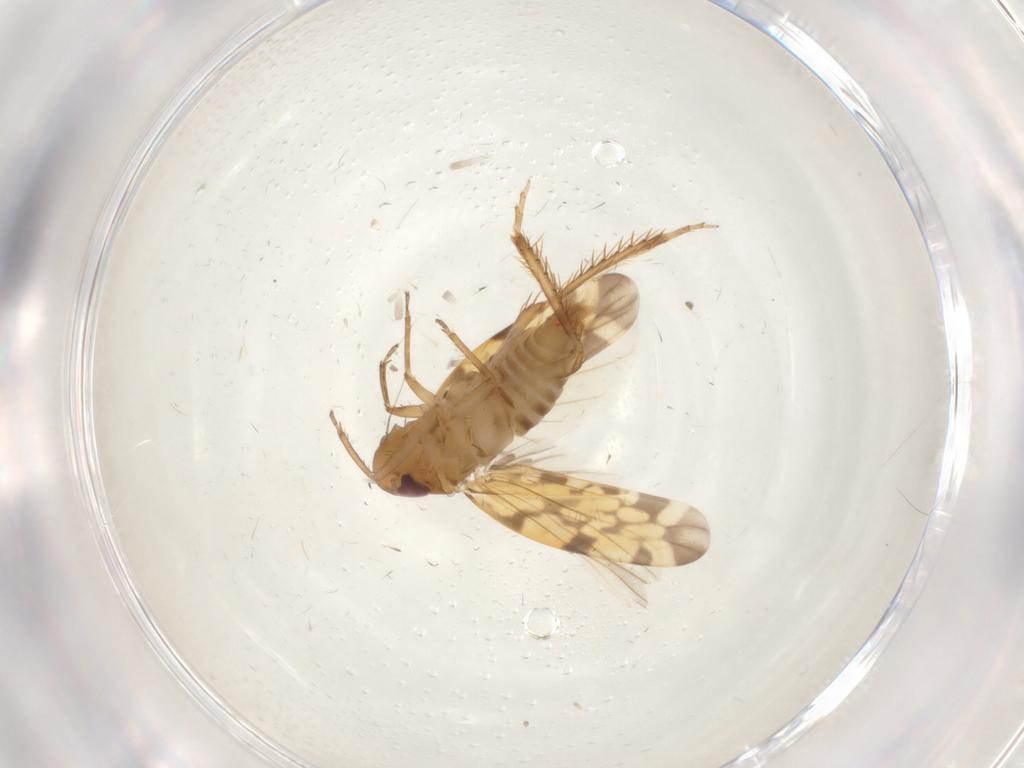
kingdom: Animalia
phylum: Arthropoda
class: Insecta
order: Hemiptera
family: Cicadellidae
